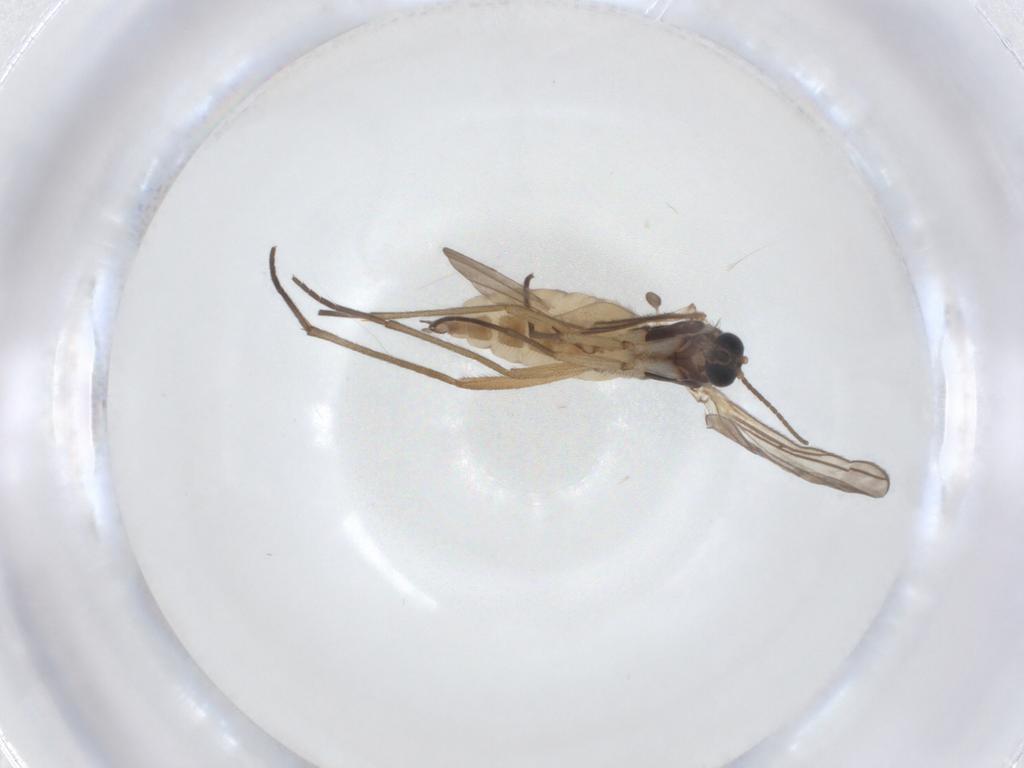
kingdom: Animalia
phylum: Arthropoda
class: Insecta
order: Diptera
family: Sciaridae
